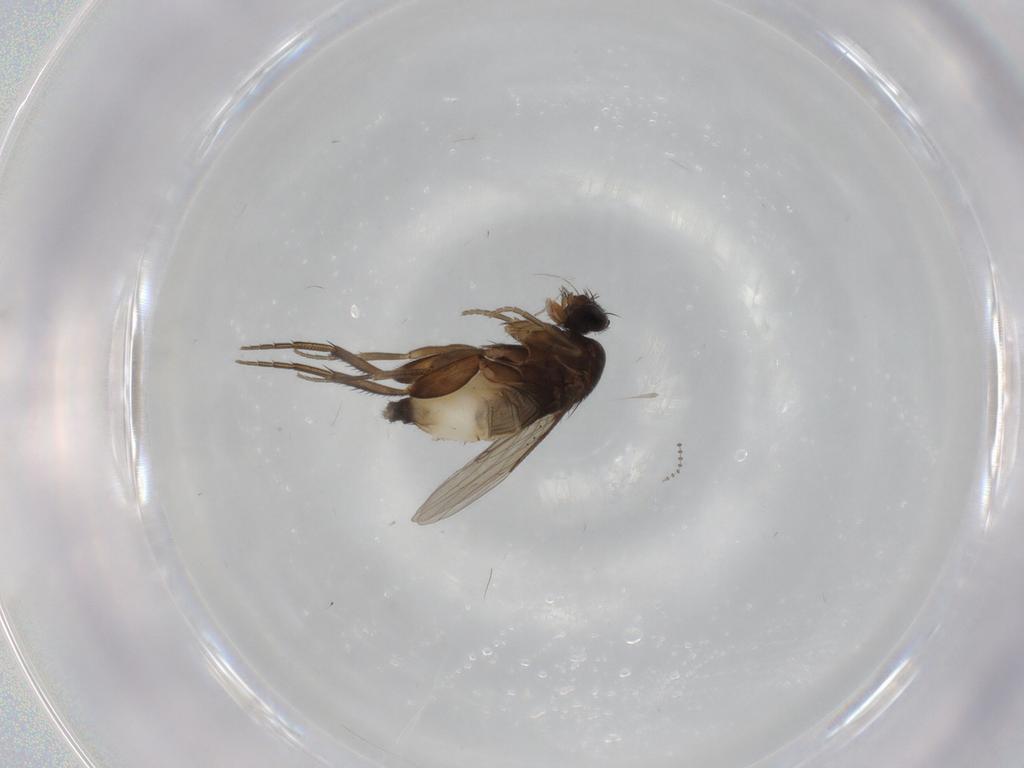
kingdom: Animalia
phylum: Arthropoda
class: Insecta
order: Diptera
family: Phoridae
